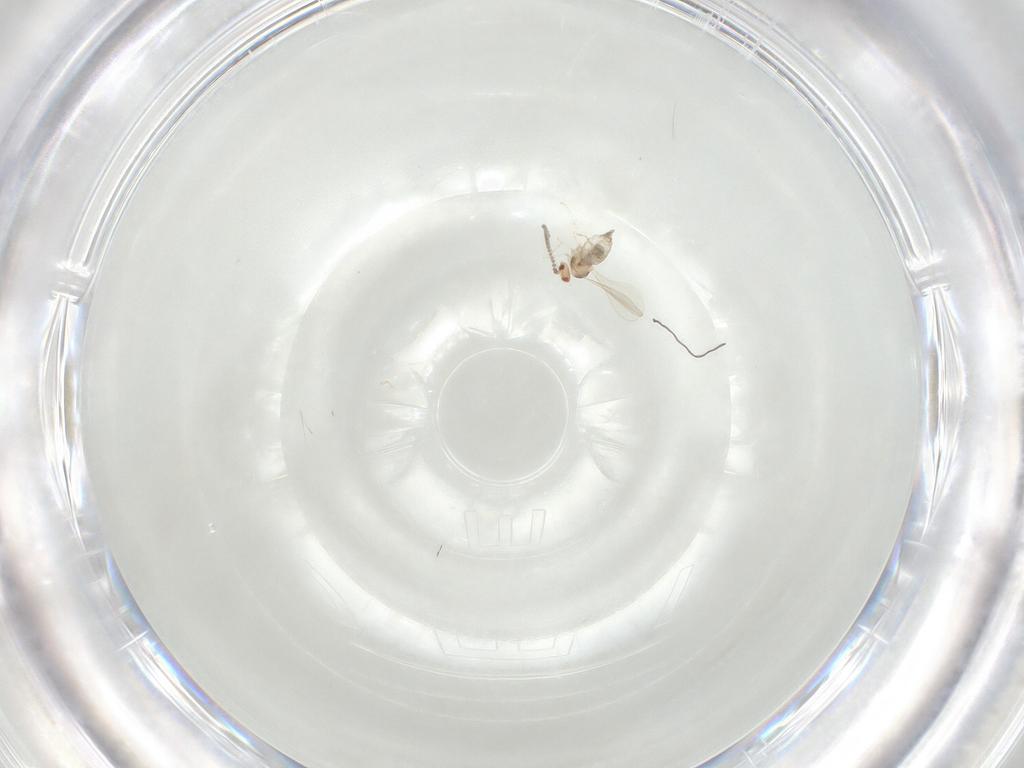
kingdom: Animalia
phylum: Arthropoda
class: Insecta
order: Diptera
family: Cecidomyiidae
